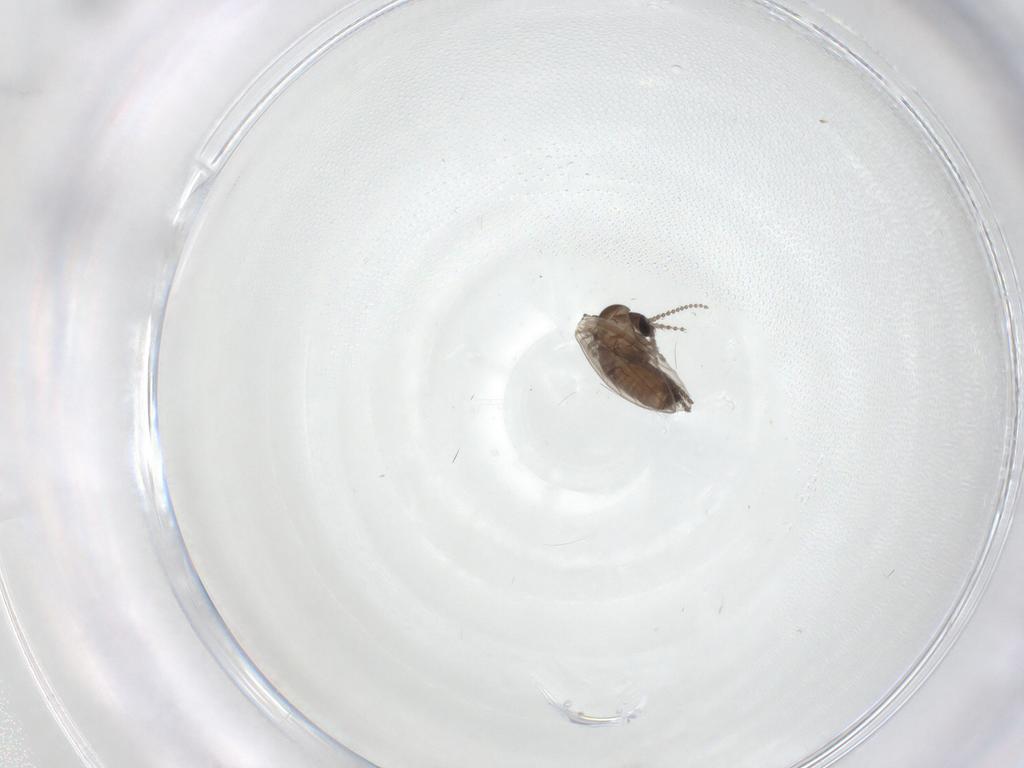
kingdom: Animalia
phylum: Arthropoda
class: Insecta
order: Diptera
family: Psychodidae
